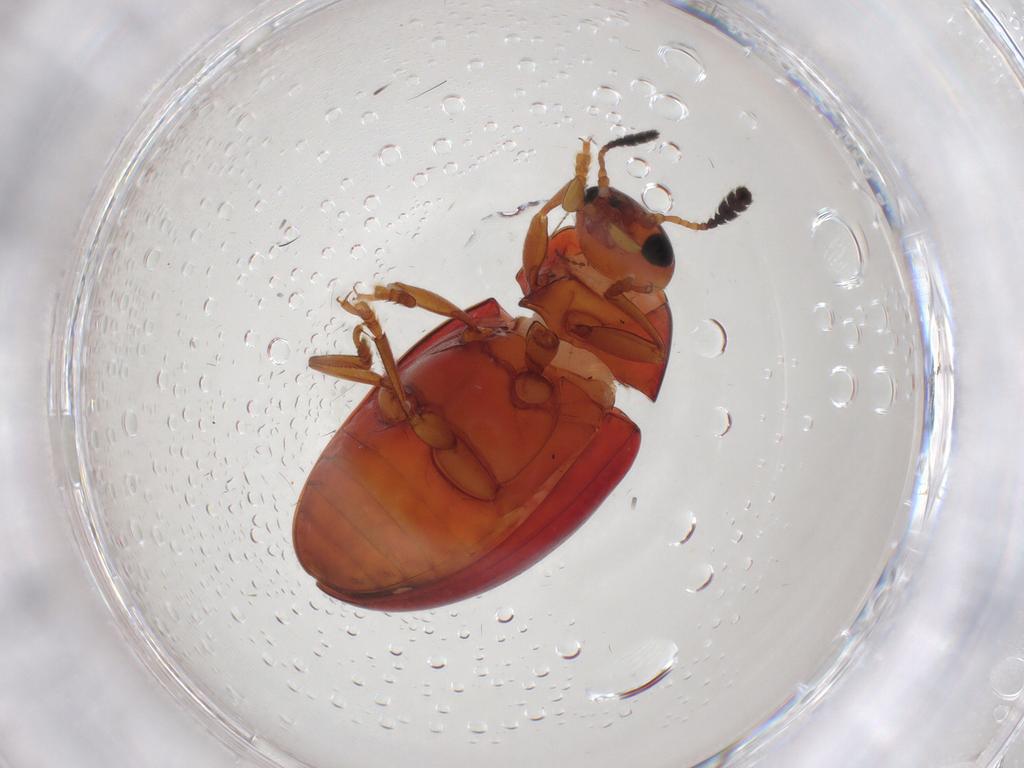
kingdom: Animalia
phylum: Arthropoda
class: Insecta
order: Coleoptera
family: Erotylidae
